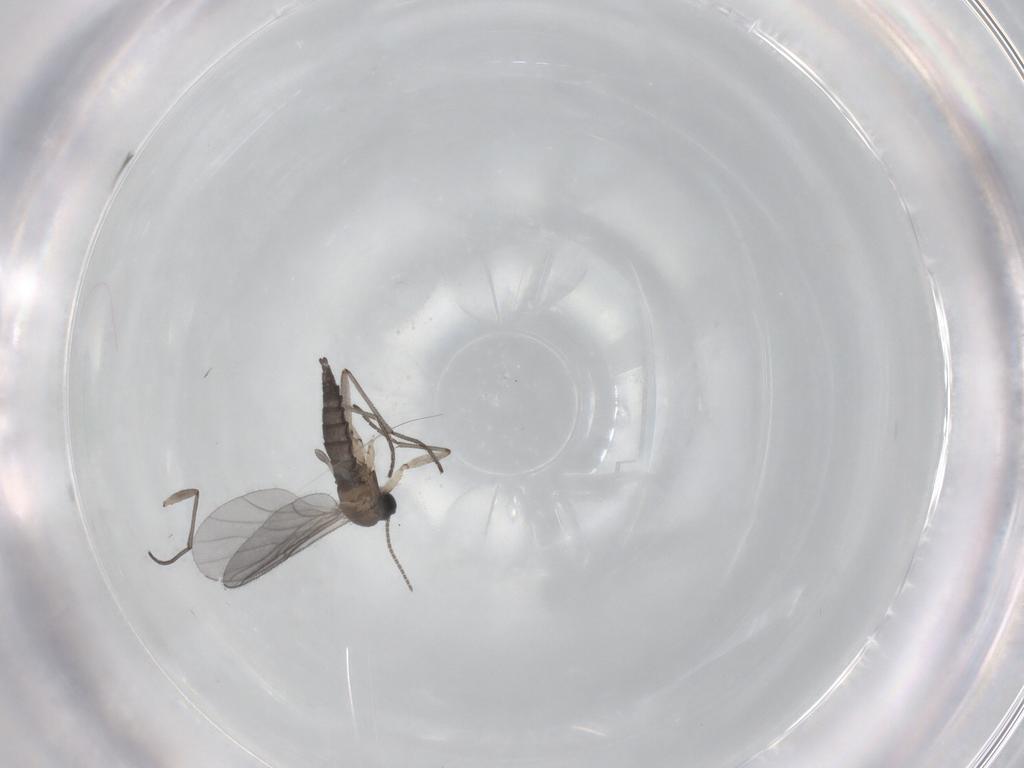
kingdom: Animalia
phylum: Arthropoda
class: Insecta
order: Diptera
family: Sciaridae
